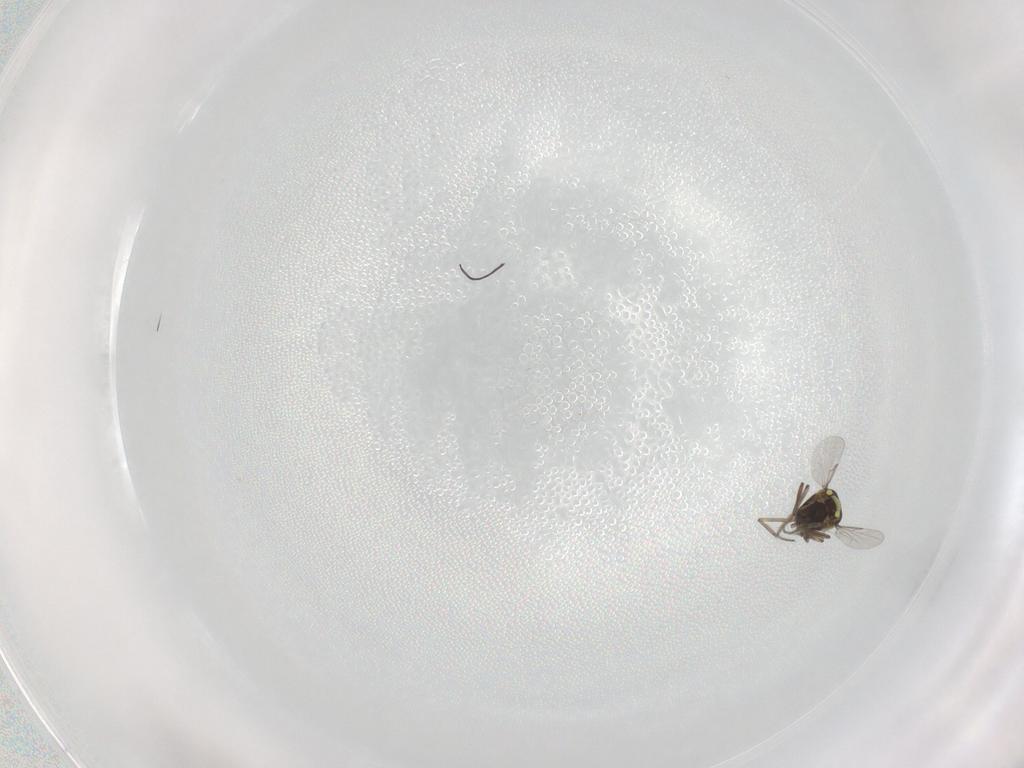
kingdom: Animalia
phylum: Arthropoda
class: Insecta
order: Diptera
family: Ceratopogonidae
